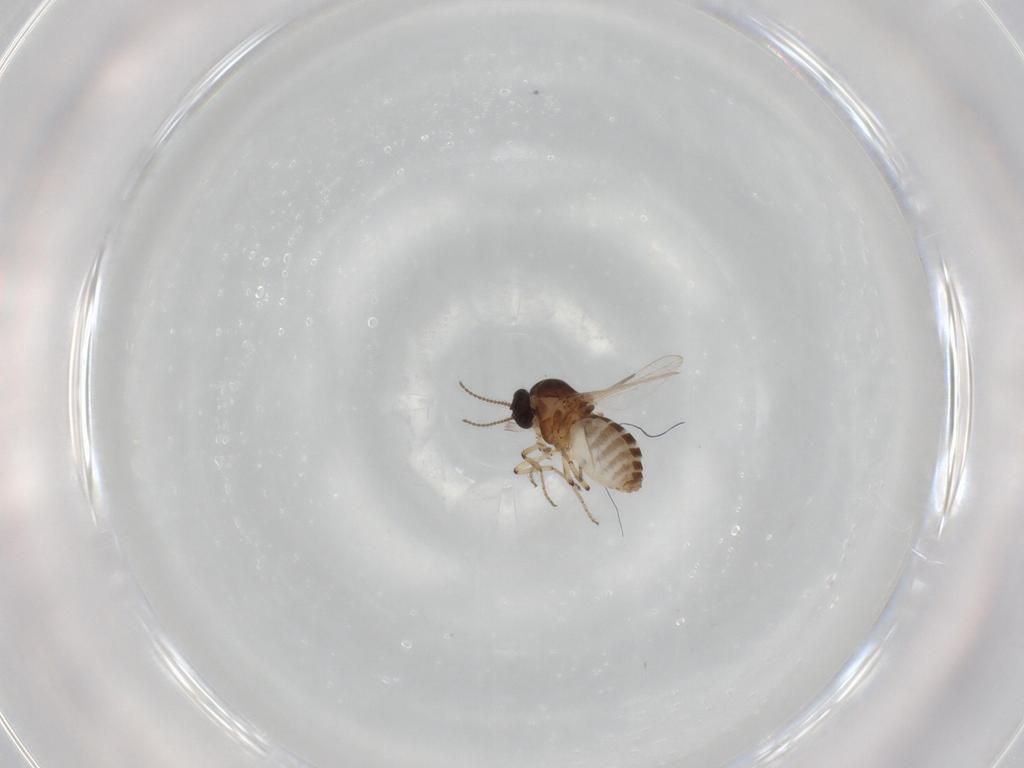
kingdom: Animalia
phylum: Arthropoda
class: Insecta
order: Diptera
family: Ceratopogonidae
